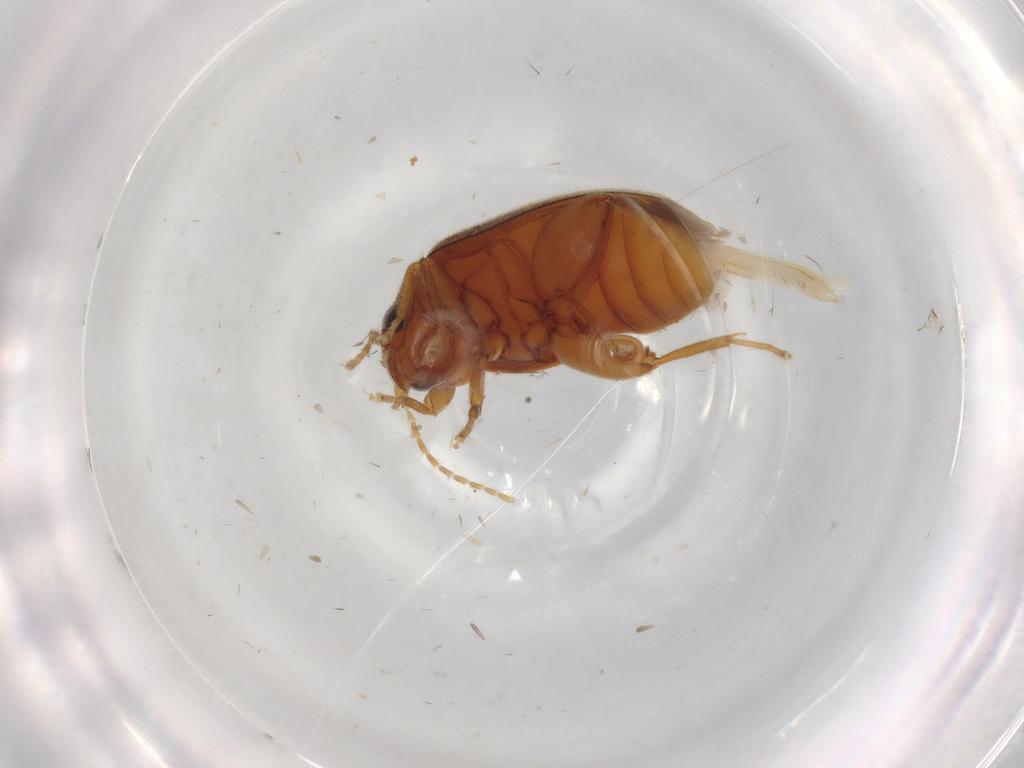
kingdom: Animalia
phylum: Arthropoda
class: Insecta
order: Coleoptera
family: Scirtidae
